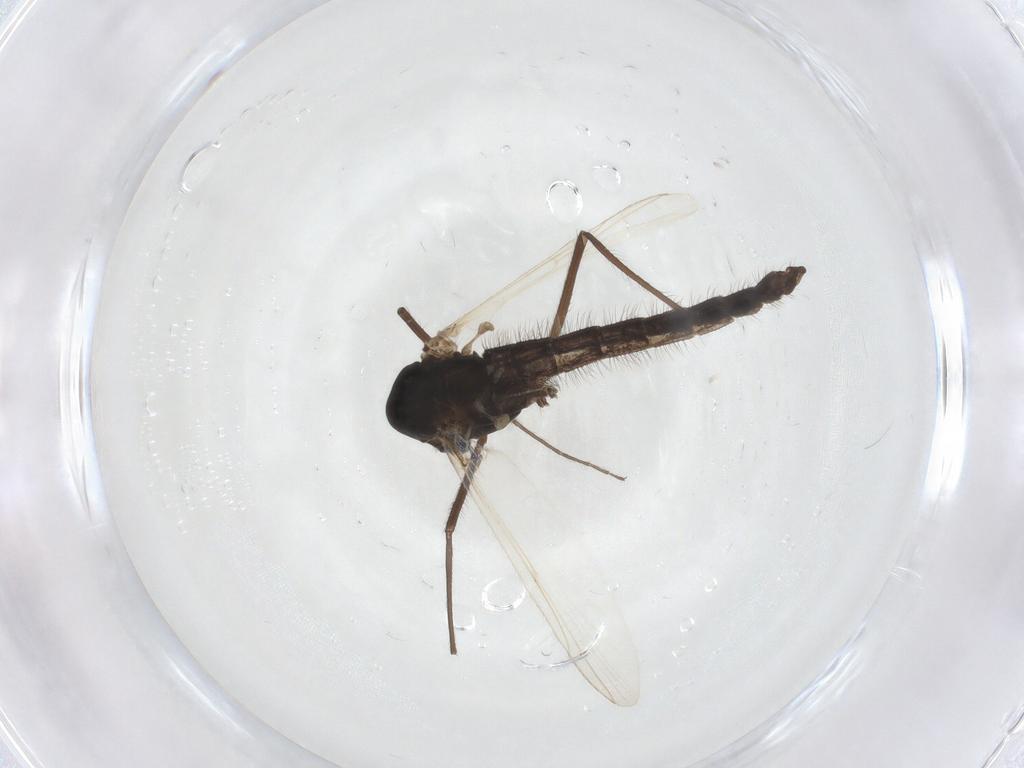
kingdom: Animalia
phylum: Arthropoda
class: Insecta
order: Diptera
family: Chironomidae
